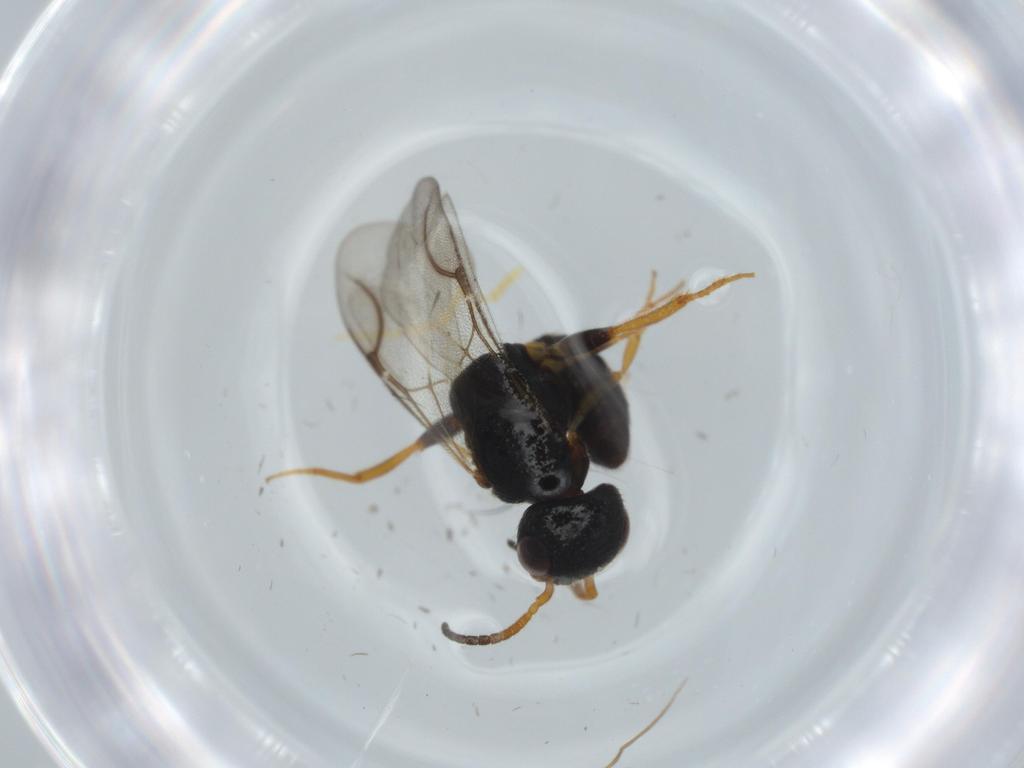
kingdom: Animalia
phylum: Arthropoda
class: Insecta
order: Hymenoptera
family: Bethylidae
